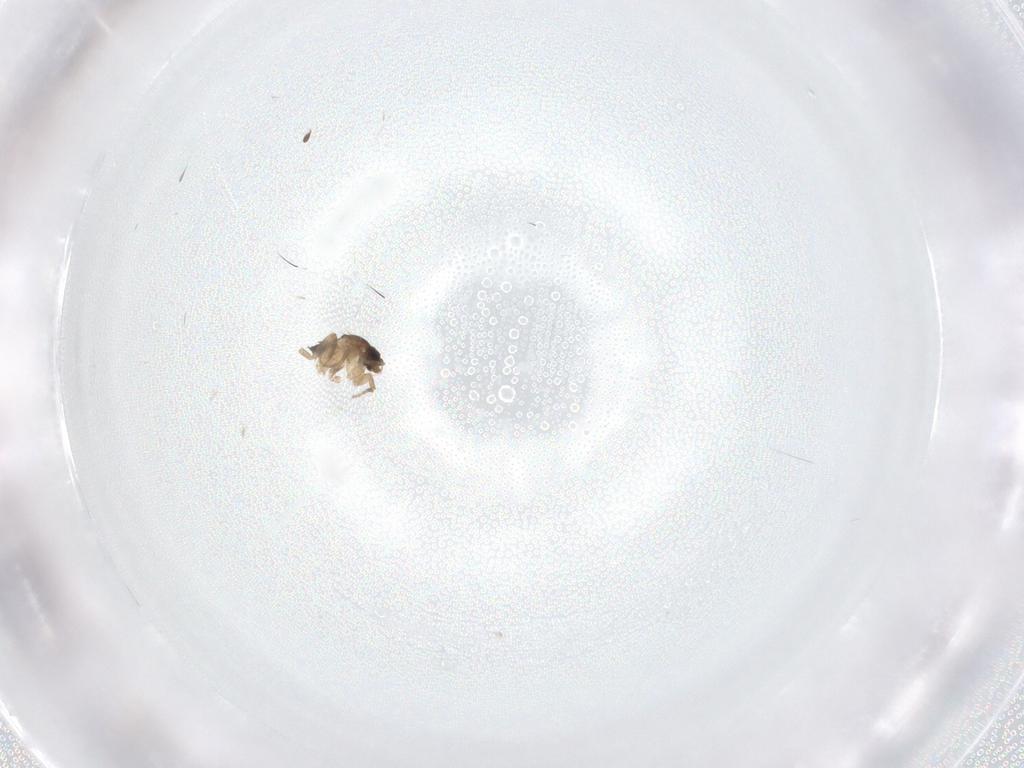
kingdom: Animalia
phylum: Arthropoda
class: Insecta
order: Diptera
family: Phoridae
